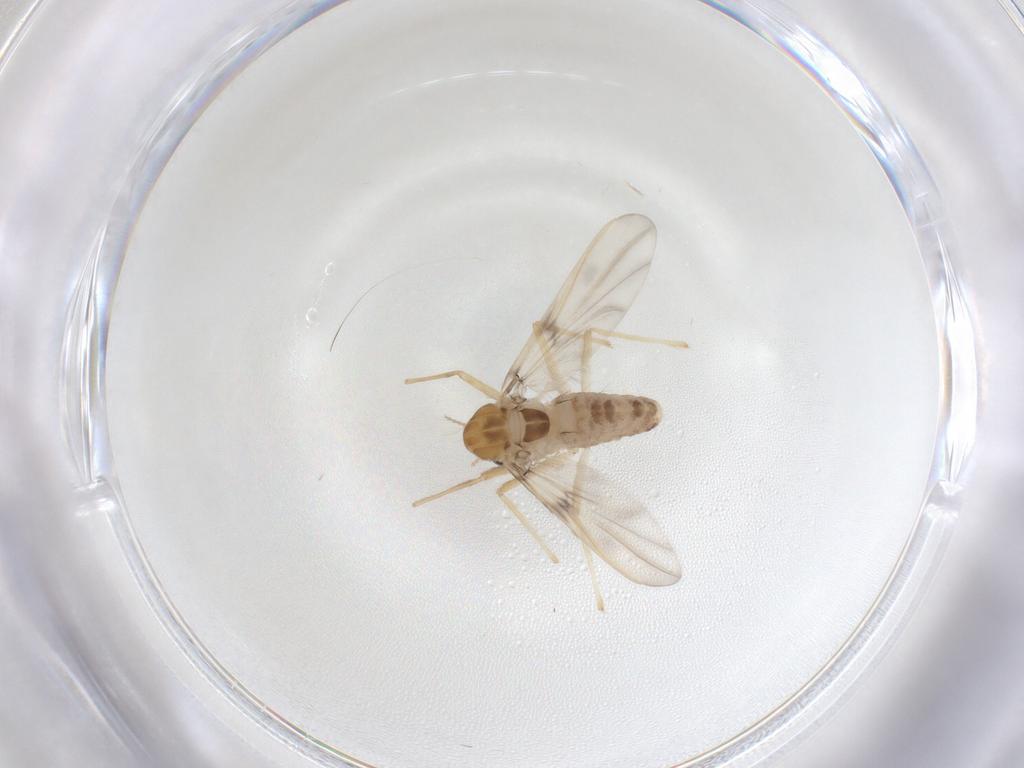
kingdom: Animalia
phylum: Arthropoda
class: Insecta
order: Diptera
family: Chironomidae
